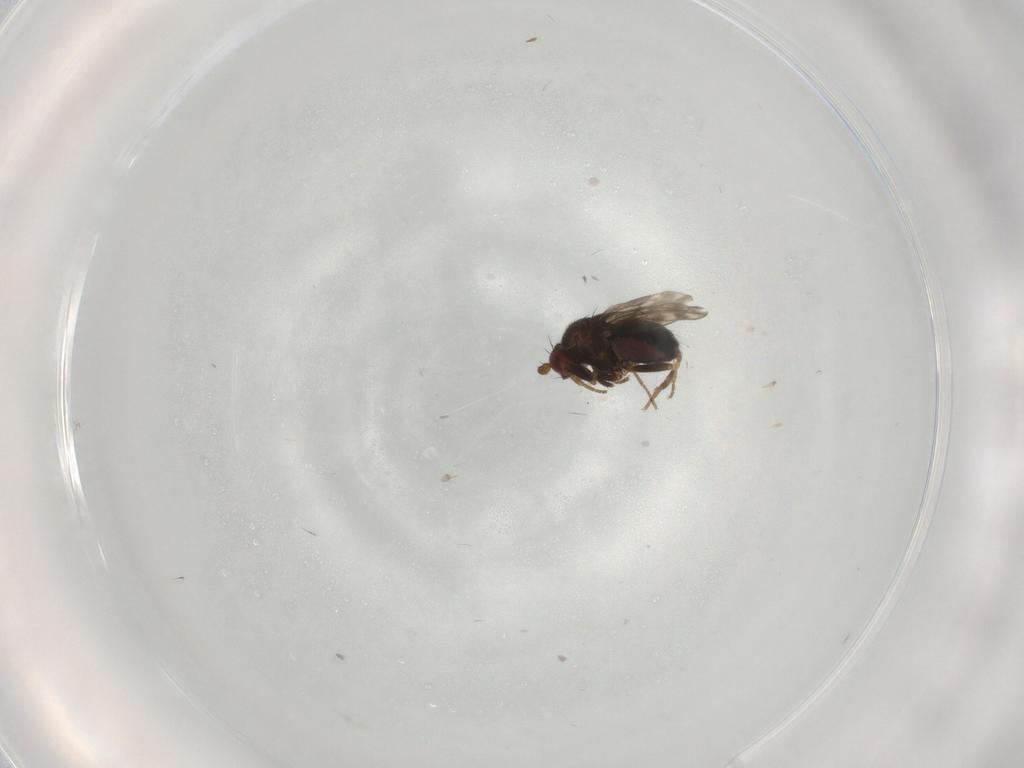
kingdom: Animalia
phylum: Arthropoda
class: Insecta
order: Diptera
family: Sphaeroceridae
